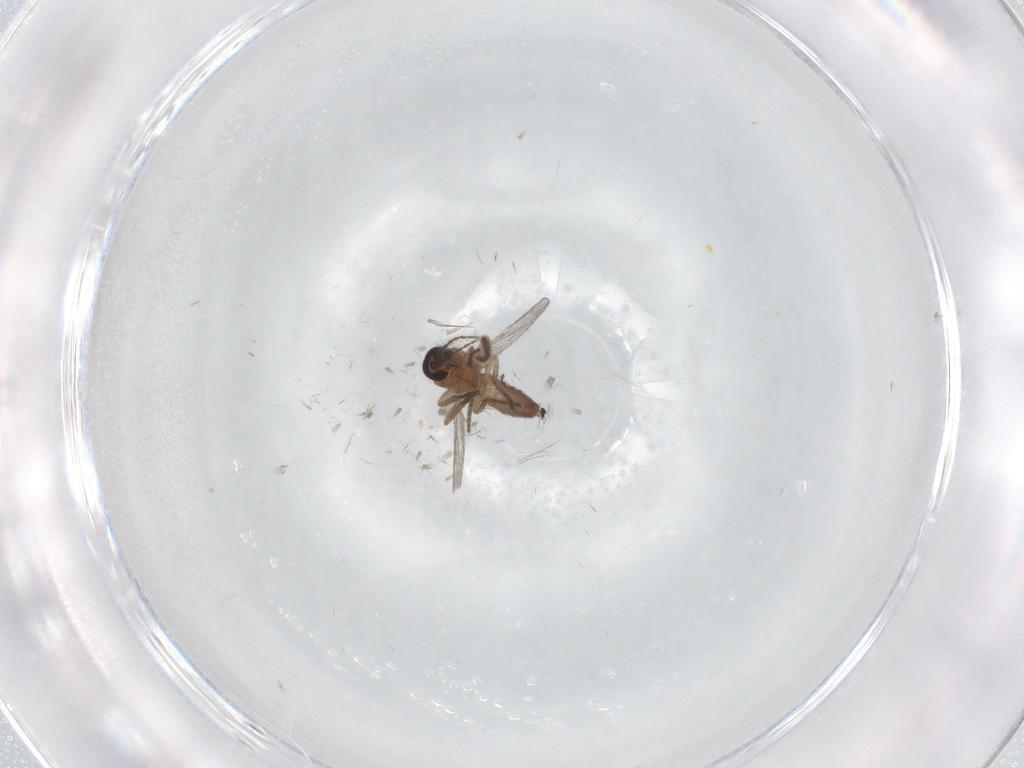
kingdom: Animalia
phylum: Arthropoda
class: Insecta
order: Diptera
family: Ceratopogonidae
